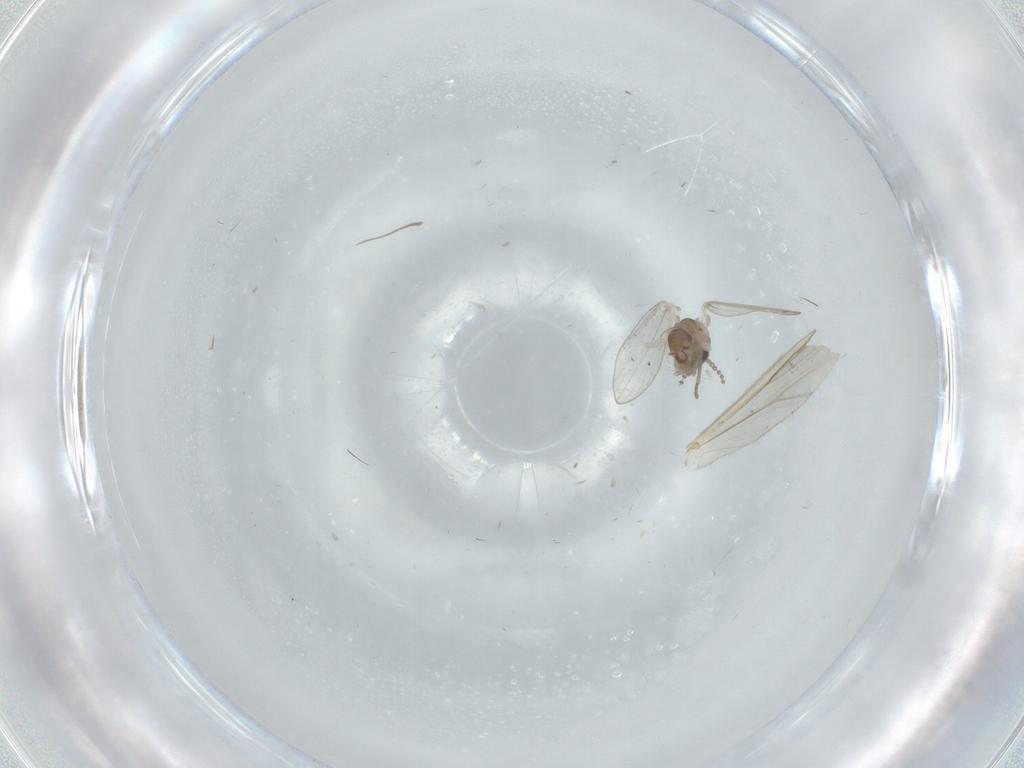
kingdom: Animalia
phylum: Arthropoda
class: Insecta
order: Diptera
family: Psychodidae
